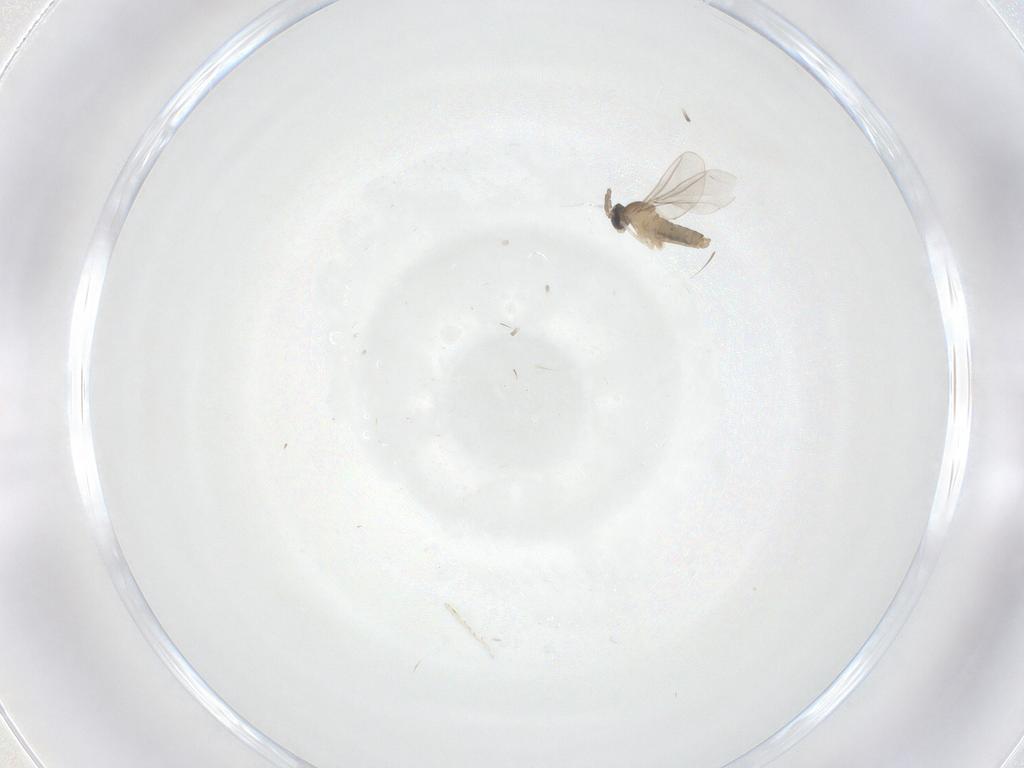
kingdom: Animalia
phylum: Arthropoda
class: Insecta
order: Diptera
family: Cecidomyiidae
